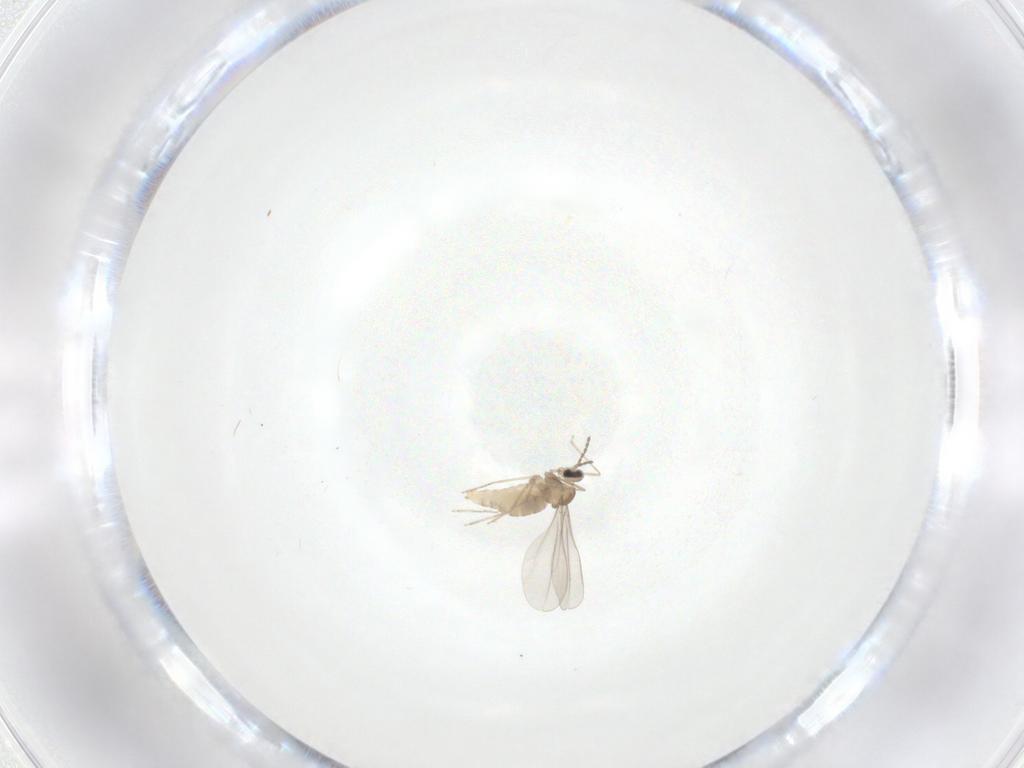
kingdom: Animalia
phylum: Arthropoda
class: Insecta
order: Diptera
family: Cecidomyiidae
